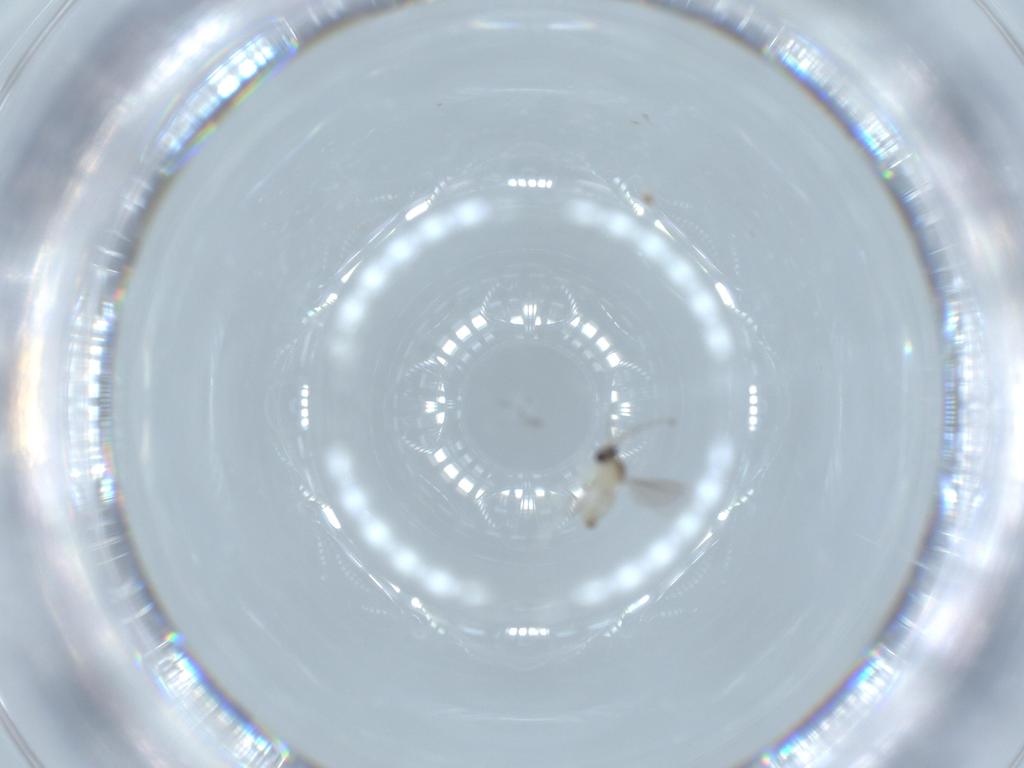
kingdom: Animalia
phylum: Arthropoda
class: Insecta
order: Diptera
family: Cecidomyiidae
